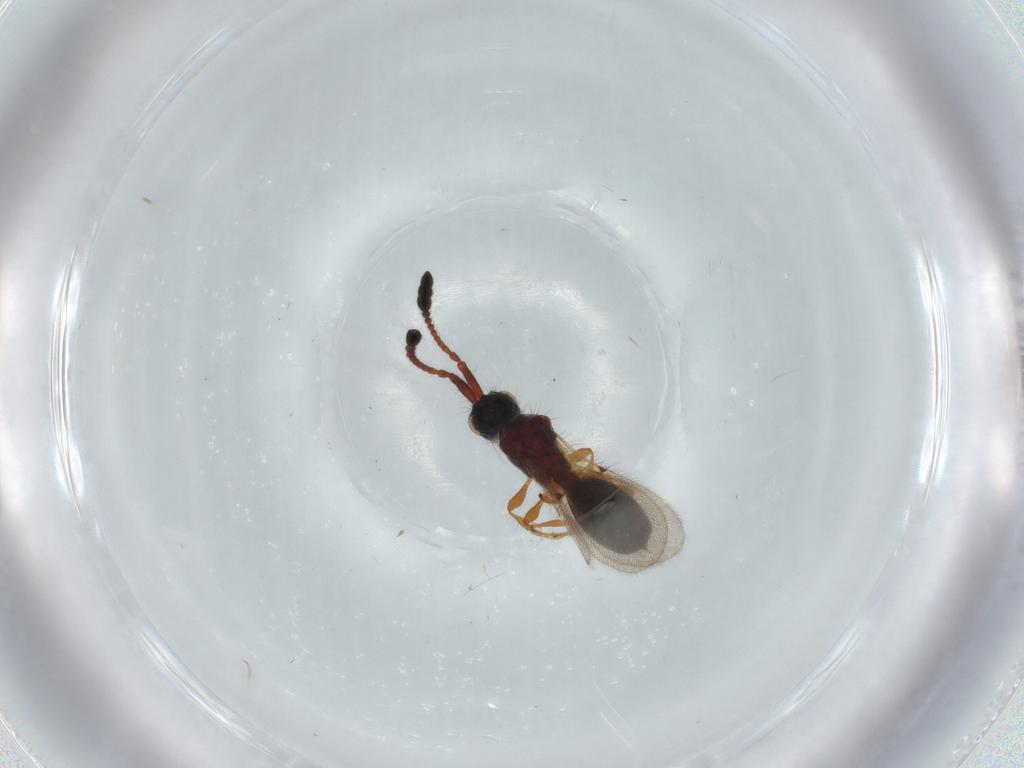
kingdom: Animalia
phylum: Arthropoda
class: Insecta
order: Hymenoptera
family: Diapriidae
